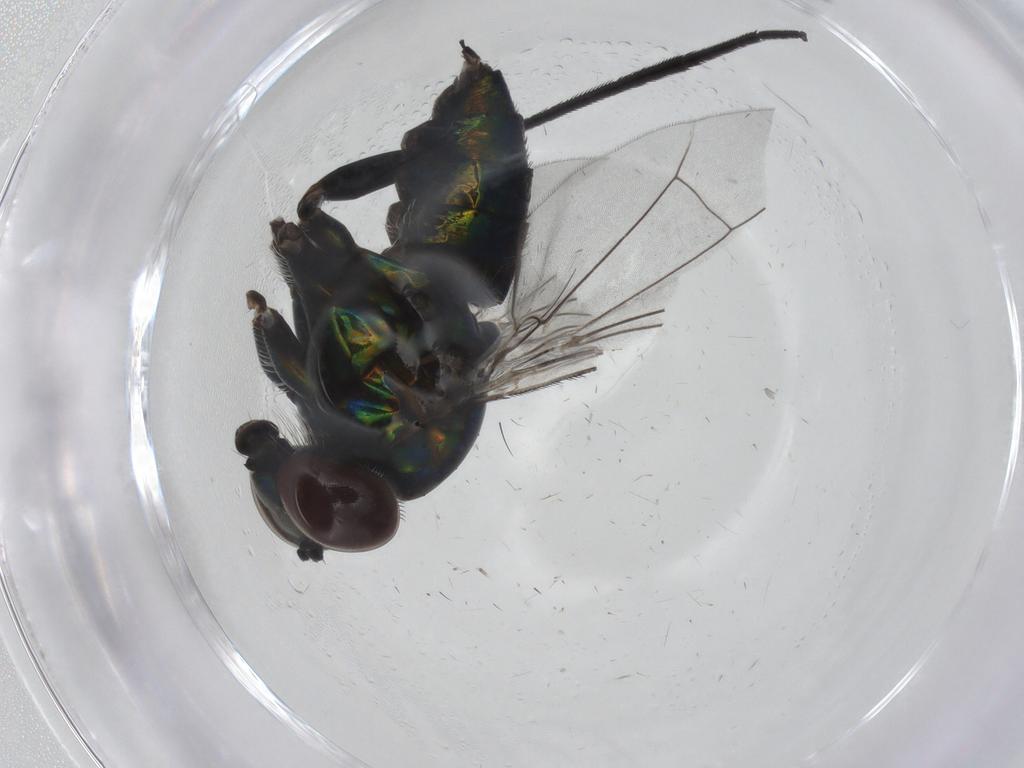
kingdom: Animalia
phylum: Arthropoda
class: Insecta
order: Diptera
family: Dolichopodidae
